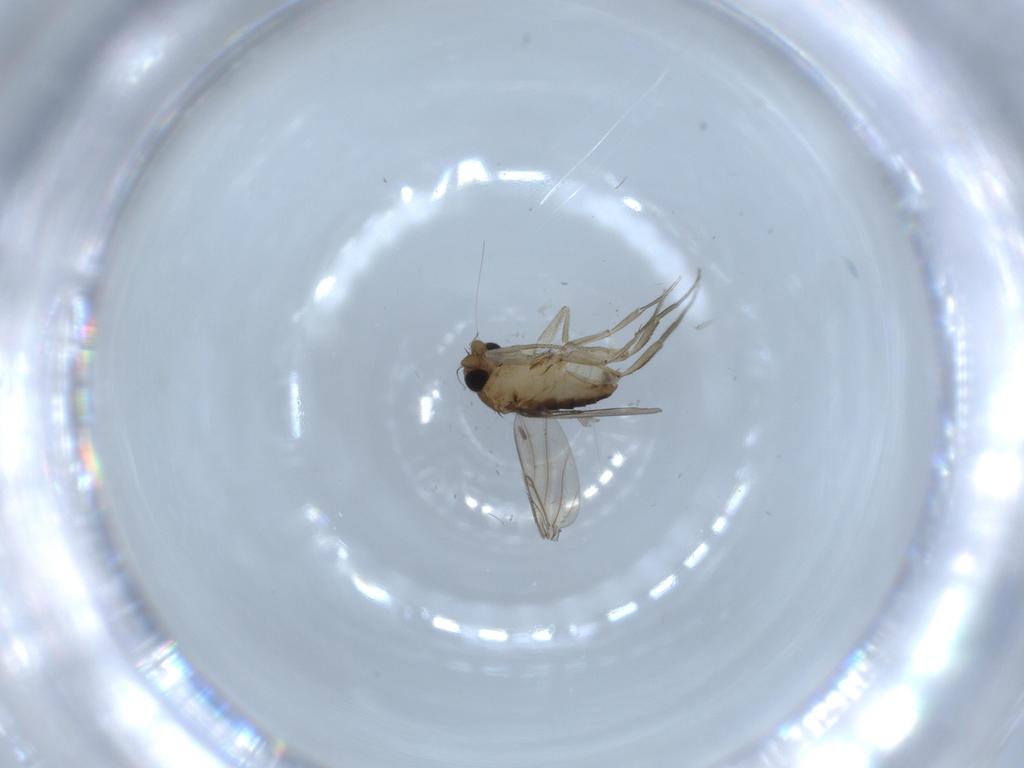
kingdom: Animalia
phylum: Arthropoda
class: Insecta
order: Diptera
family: Phoridae
